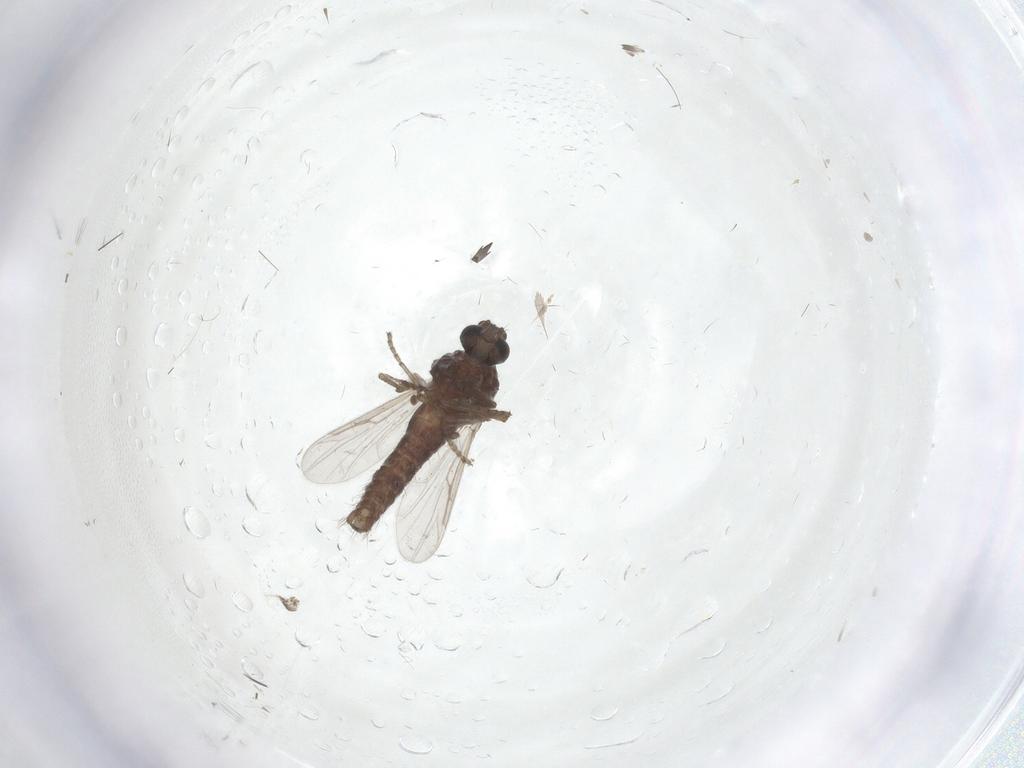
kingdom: Animalia
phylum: Arthropoda
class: Insecta
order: Diptera
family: Ceratopogonidae
